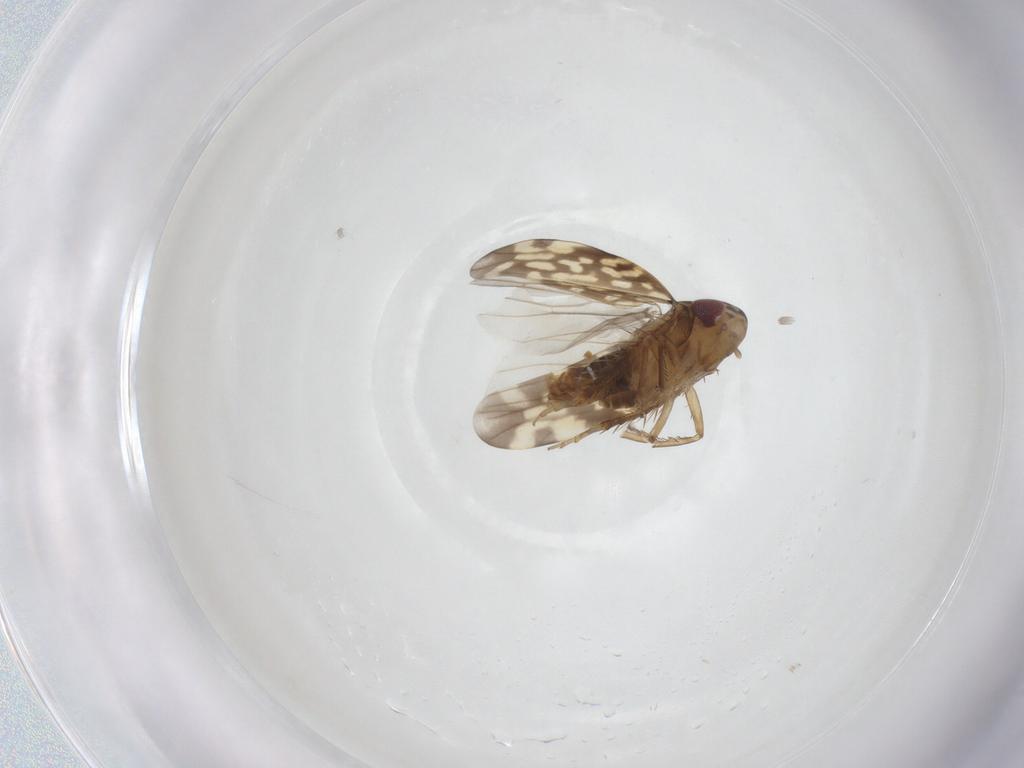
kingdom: Animalia
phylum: Arthropoda
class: Insecta
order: Hemiptera
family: Cicadellidae
